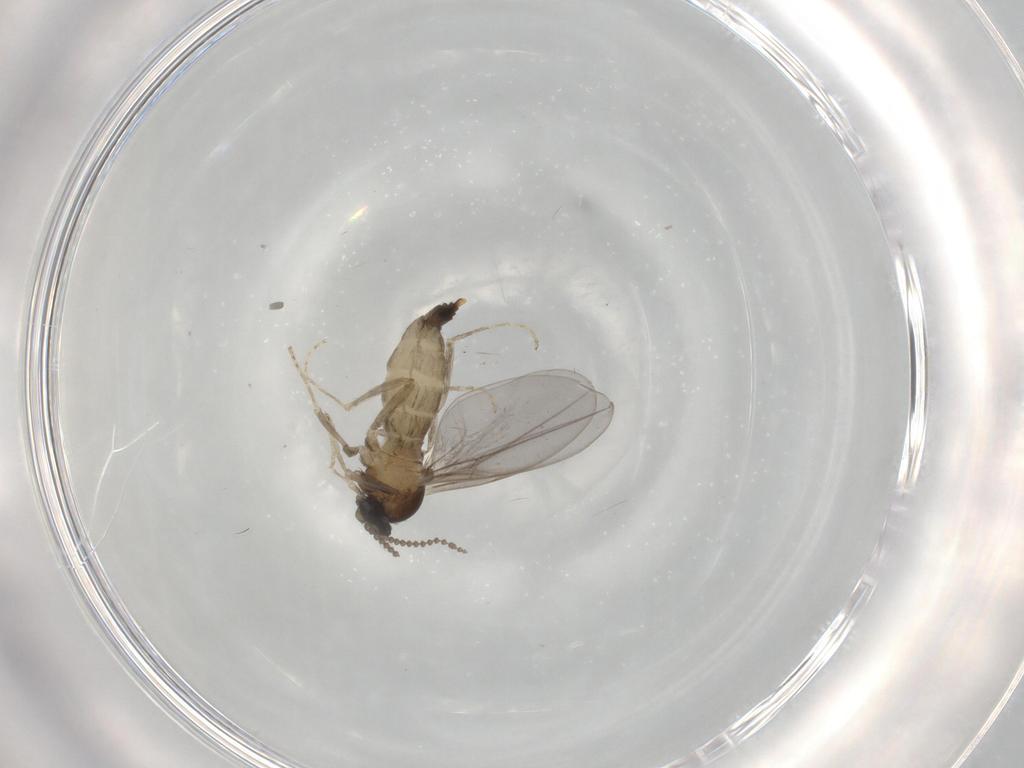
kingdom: Animalia
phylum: Arthropoda
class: Insecta
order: Diptera
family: Cecidomyiidae
